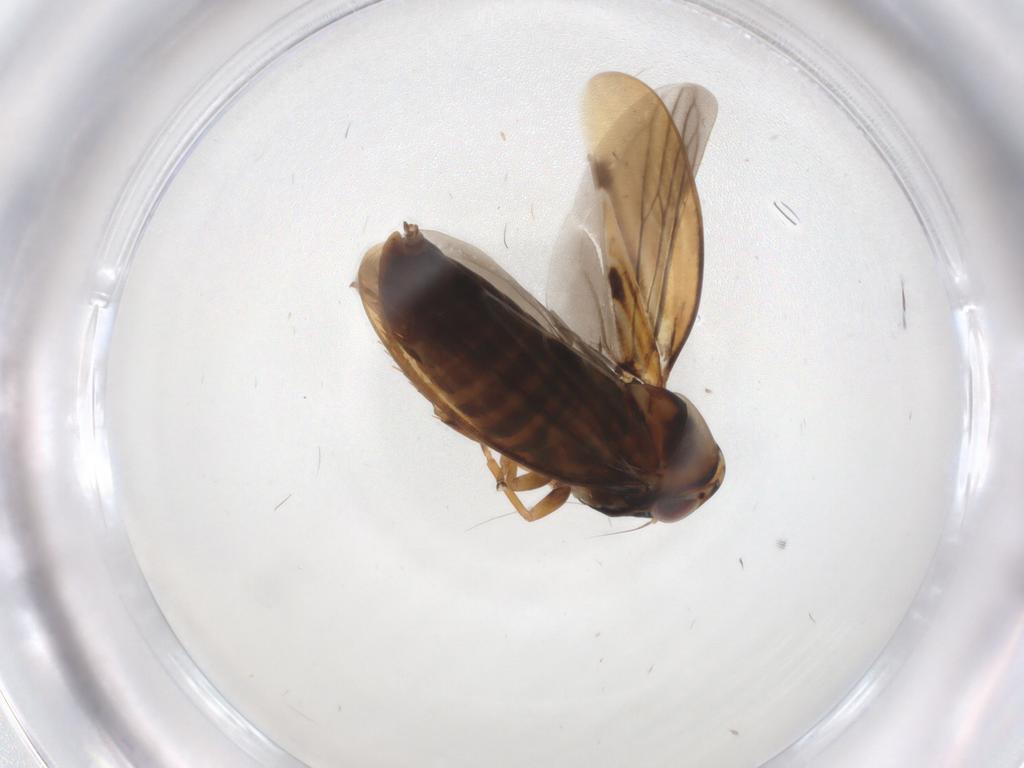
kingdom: Animalia
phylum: Arthropoda
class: Insecta
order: Hemiptera
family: Cicadellidae
